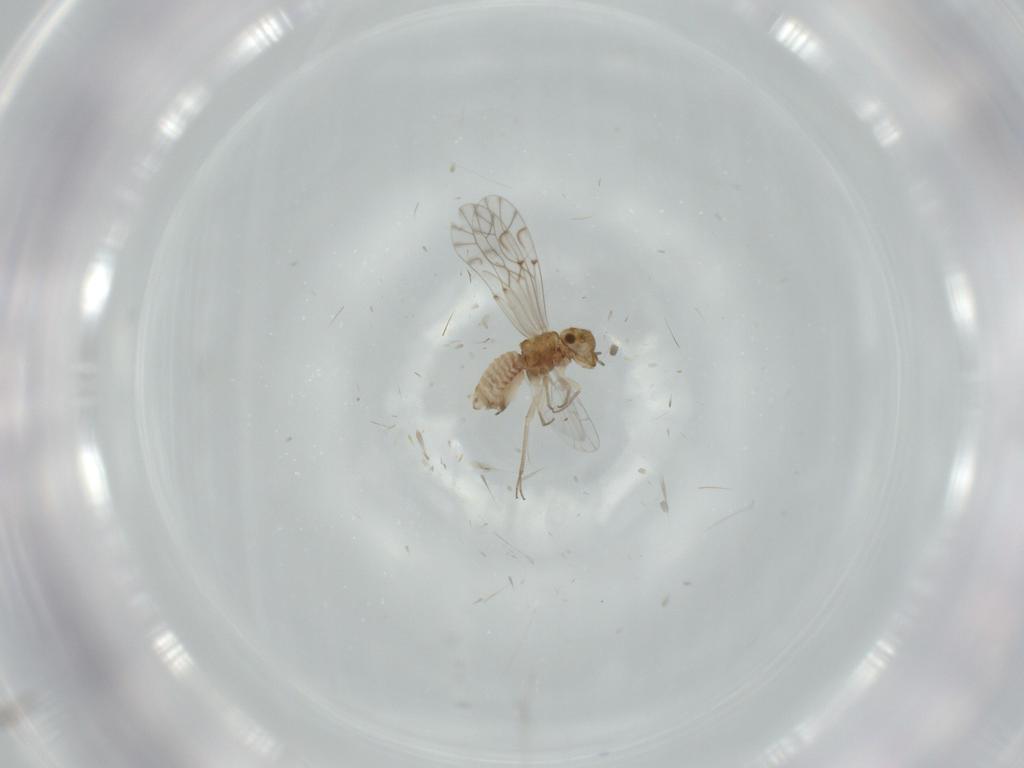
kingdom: Animalia
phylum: Arthropoda
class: Insecta
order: Psocodea
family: Lachesillidae
